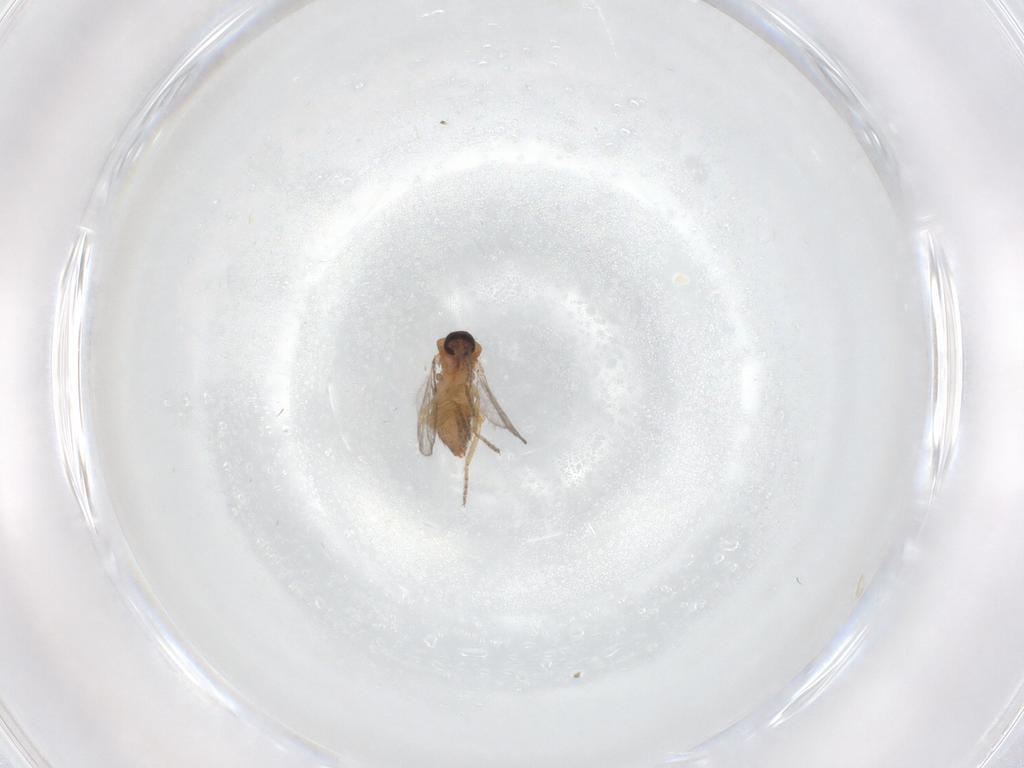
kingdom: Animalia
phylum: Arthropoda
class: Insecta
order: Diptera
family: Ceratopogonidae
